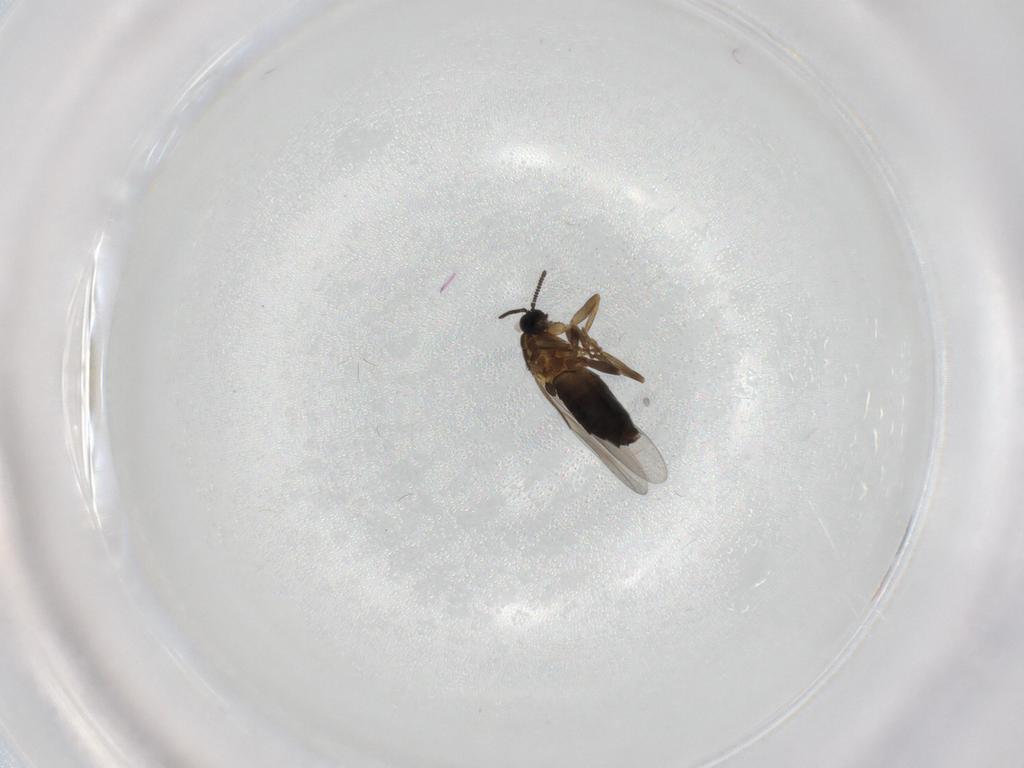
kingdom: Animalia
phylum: Arthropoda
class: Insecta
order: Diptera
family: Scatopsidae
